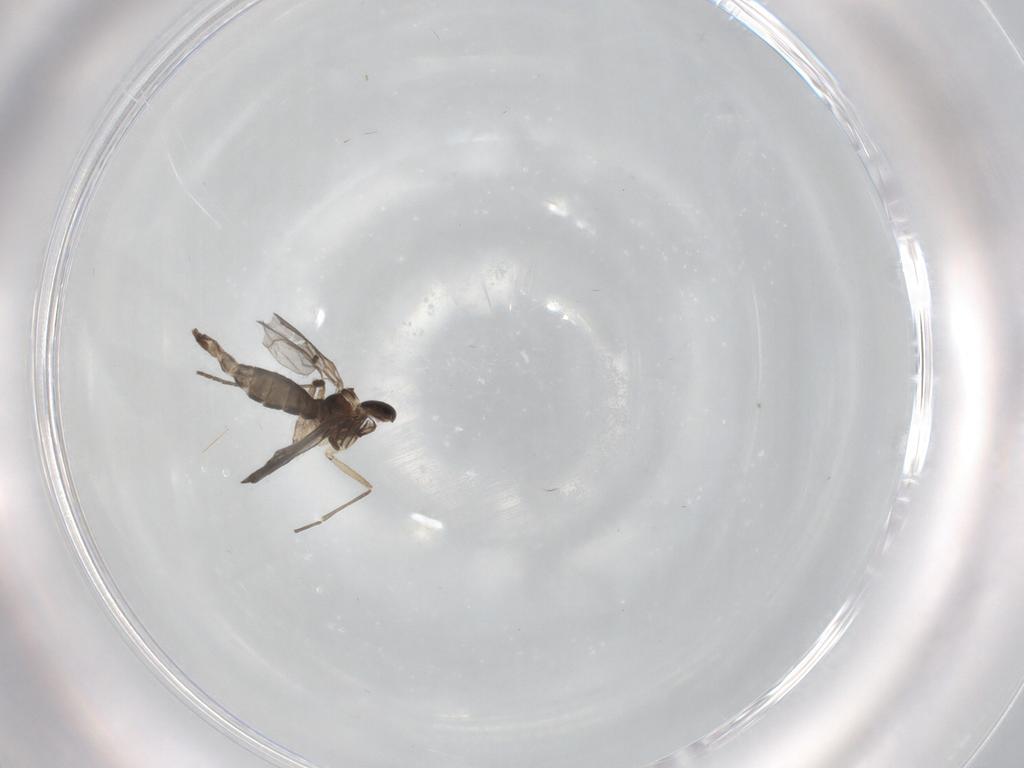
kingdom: Animalia
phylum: Arthropoda
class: Insecta
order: Diptera
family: Sciaridae
